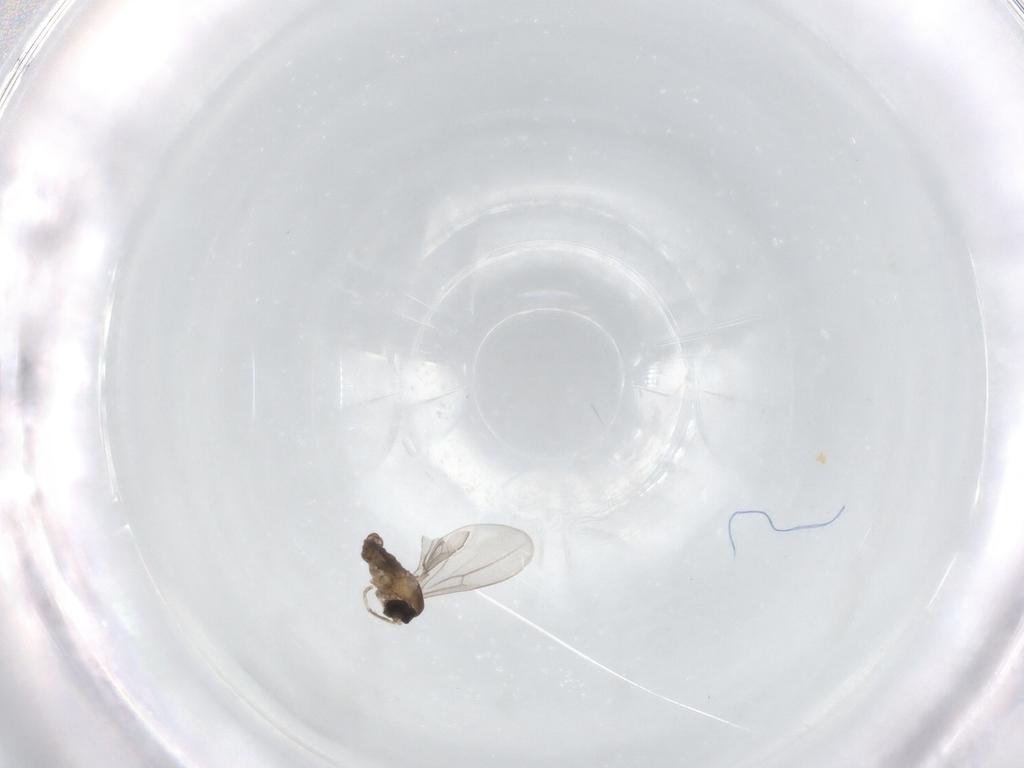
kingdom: Animalia
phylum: Arthropoda
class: Insecta
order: Diptera
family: Cecidomyiidae
